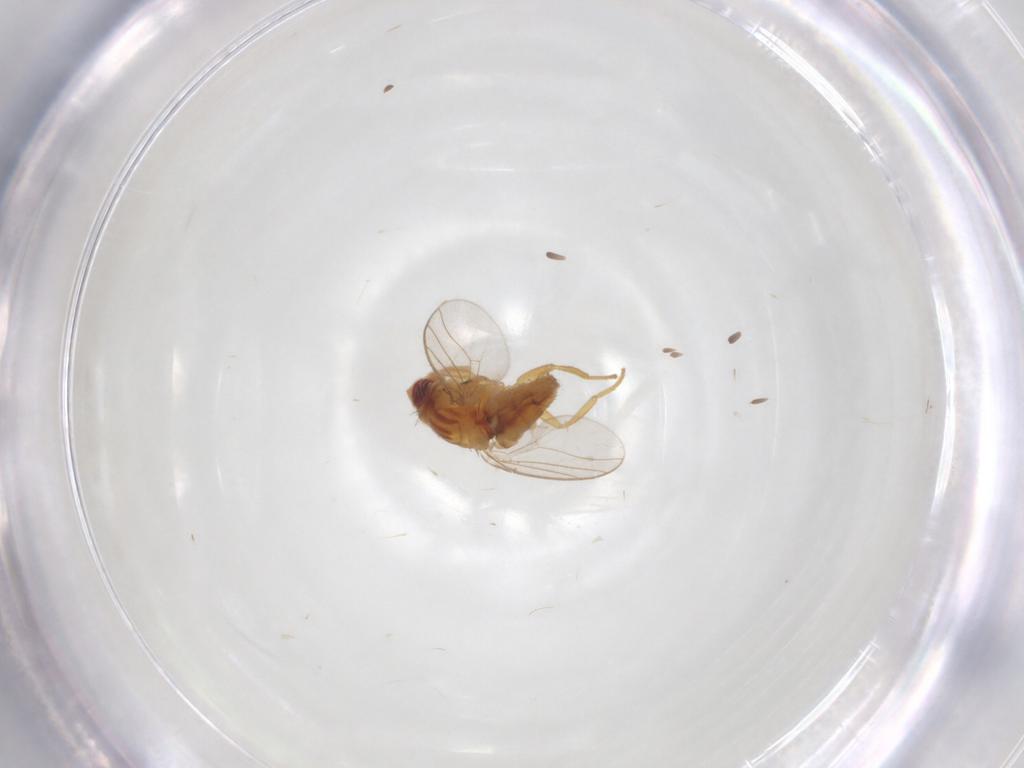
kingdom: Animalia
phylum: Arthropoda
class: Insecta
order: Diptera
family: Chloropidae
